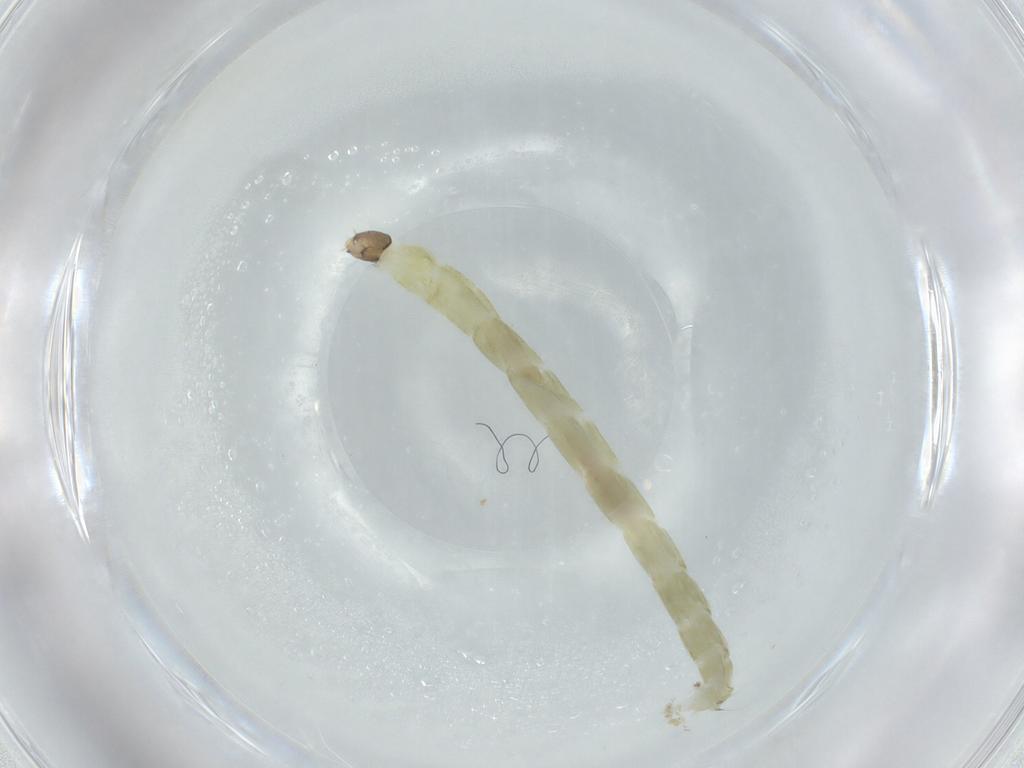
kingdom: Animalia
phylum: Arthropoda
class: Insecta
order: Diptera
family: Chironomidae
